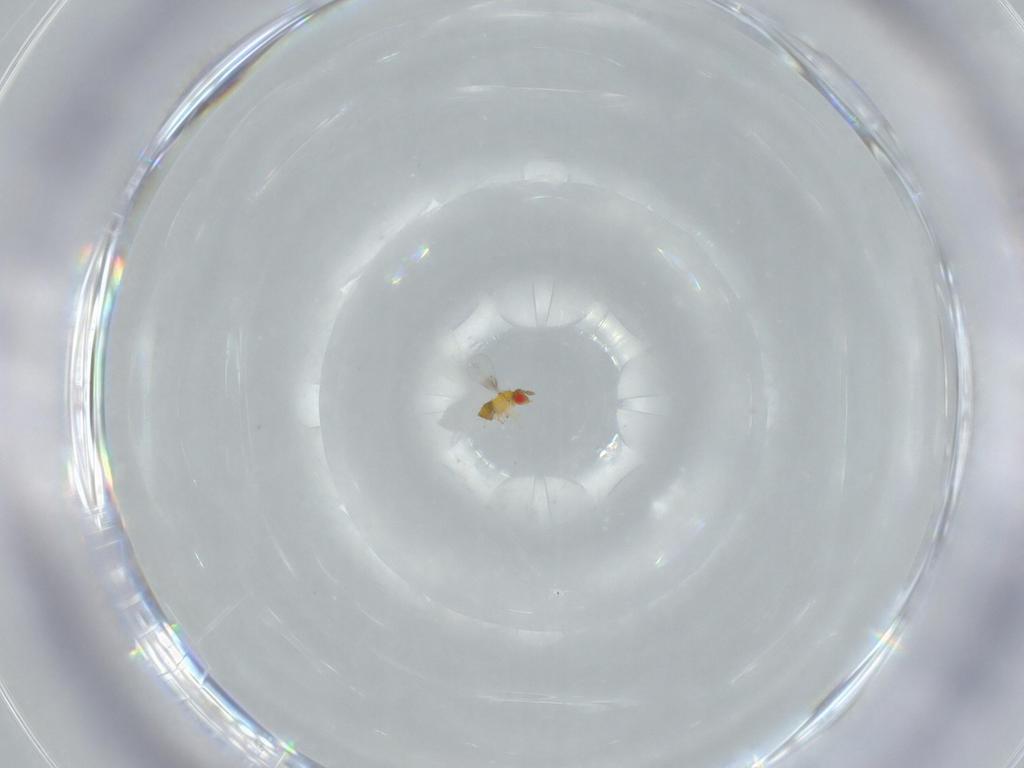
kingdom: Animalia
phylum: Arthropoda
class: Insecta
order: Hymenoptera
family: Trichogrammatidae
